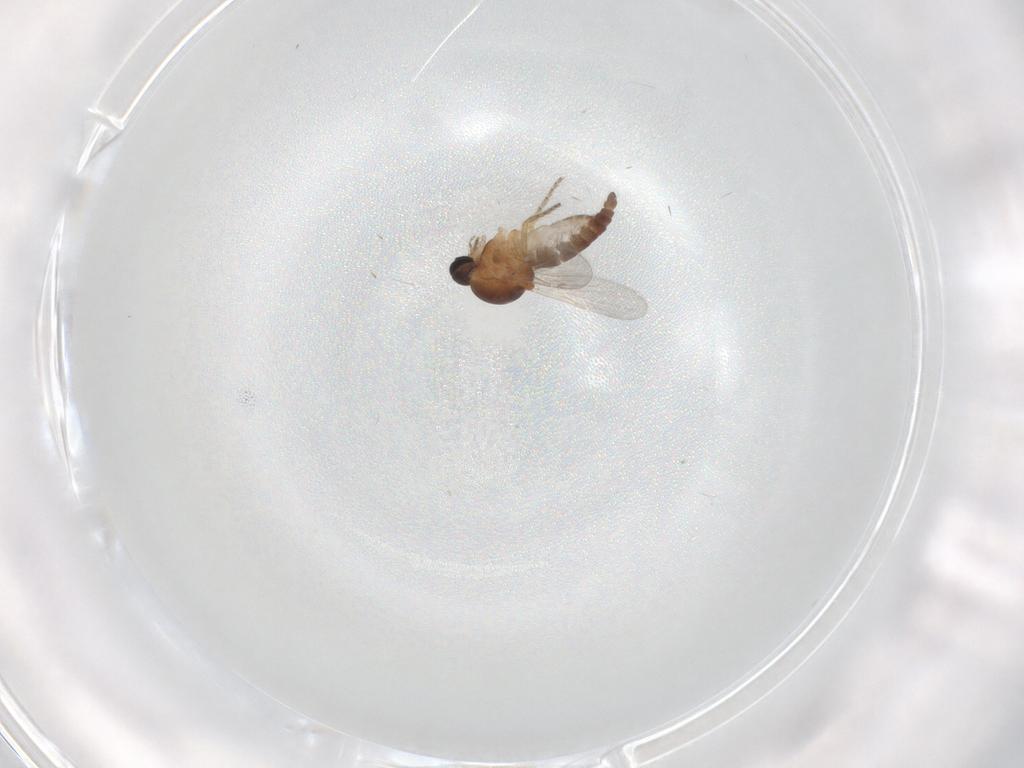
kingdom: Animalia
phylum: Arthropoda
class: Insecta
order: Diptera
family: Ceratopogonidae
